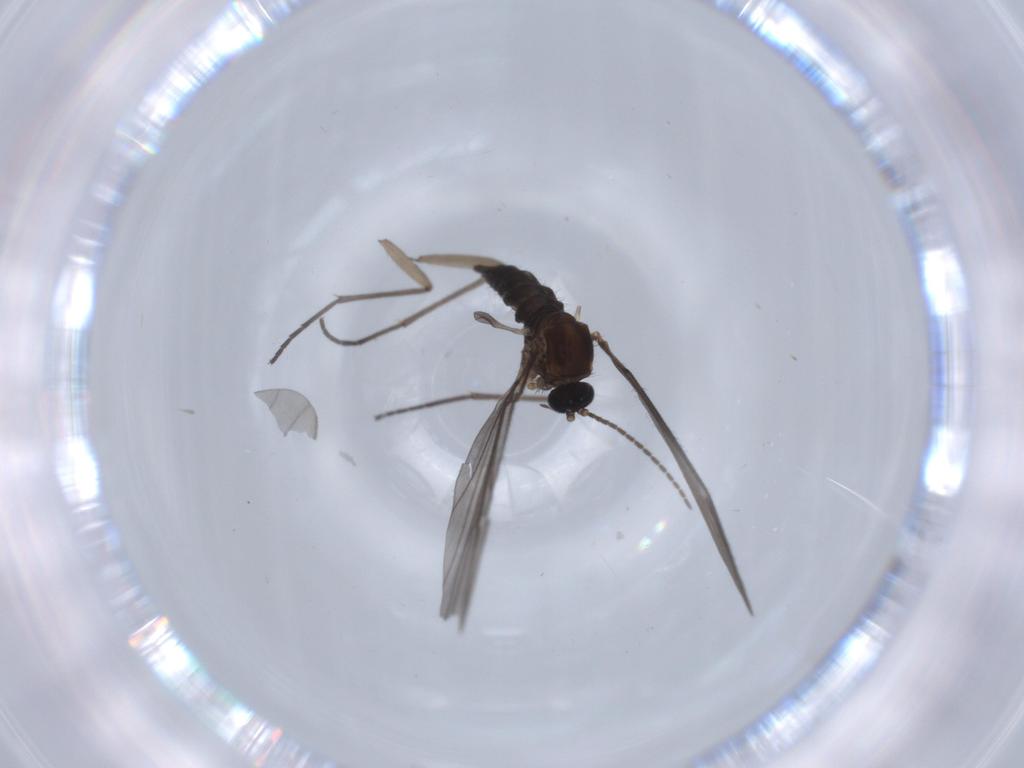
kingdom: Animalia
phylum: Arthropoda
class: Insecta
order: Diptera
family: Sciaridae
